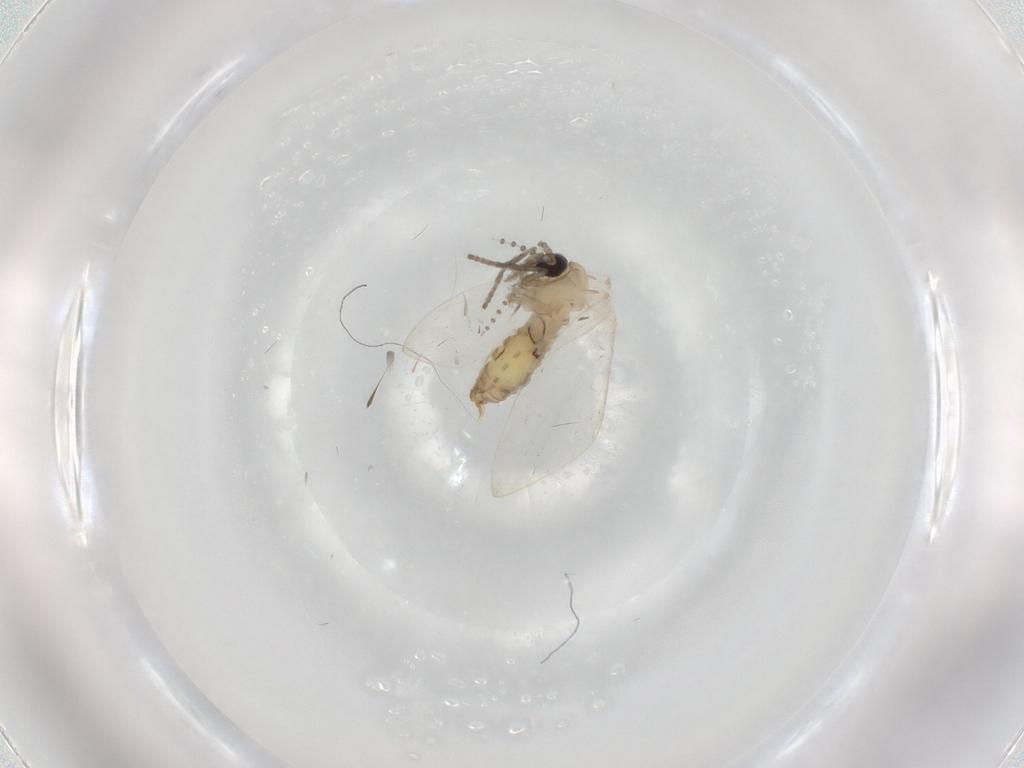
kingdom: Animalia
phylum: Arthropoda
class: Insecta
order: Diptera
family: Psychodidae
